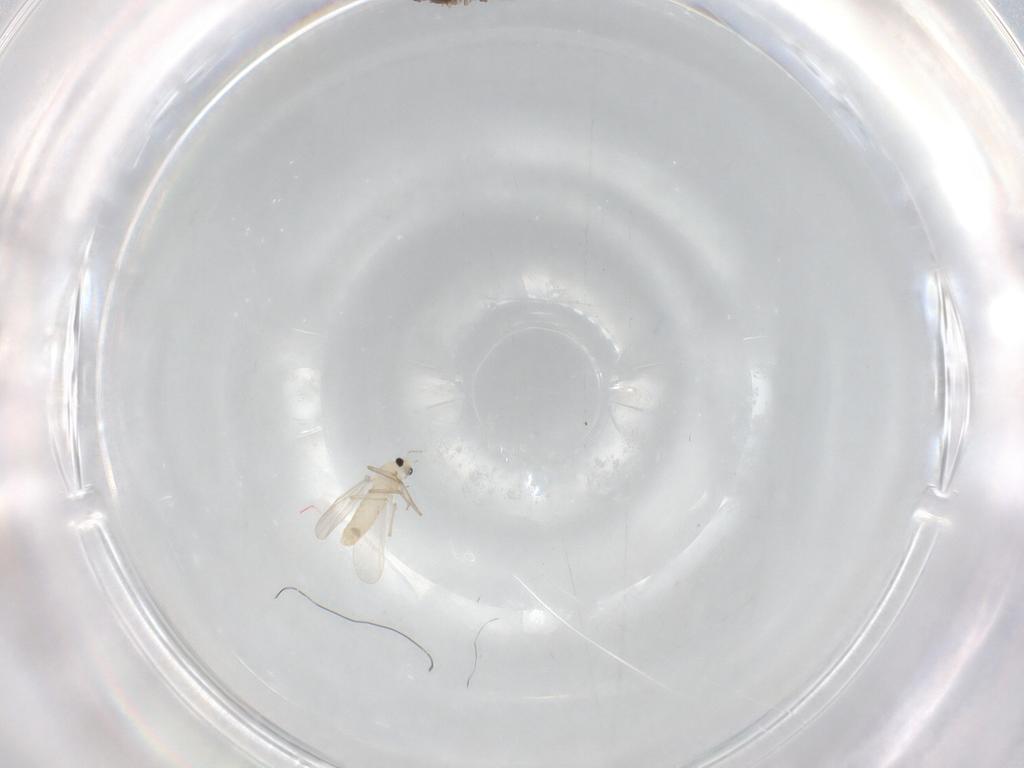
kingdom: Animalia
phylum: Arthropoda
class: Insecta
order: Diptera
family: Chironomidae
